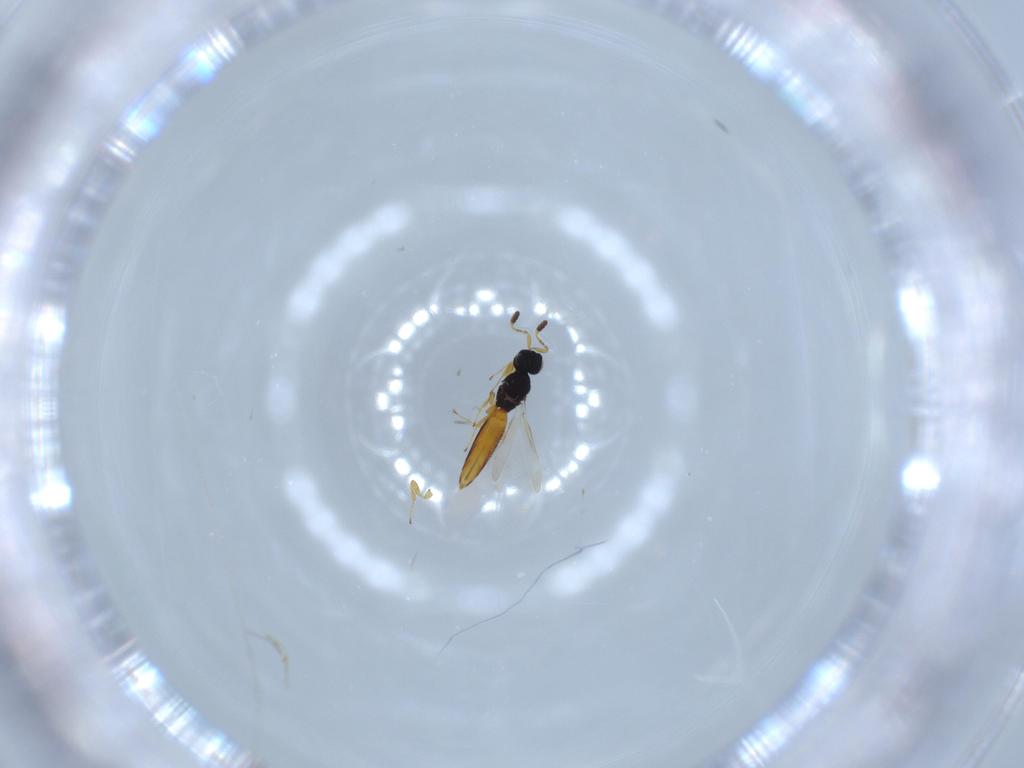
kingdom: Animalia
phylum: Arthropoda
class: Insecta
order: Hymenoptera
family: Scelionidae
